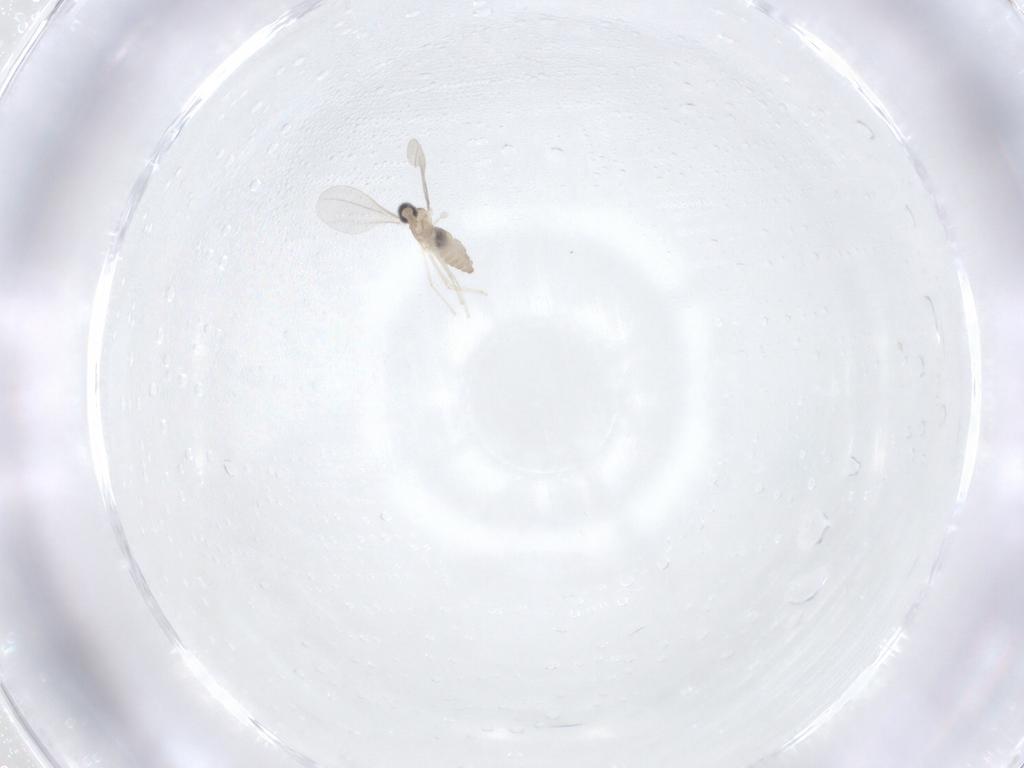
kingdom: Animalia
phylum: Arthropoda
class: Insecta
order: Diptera
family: Cecidomyiidae
